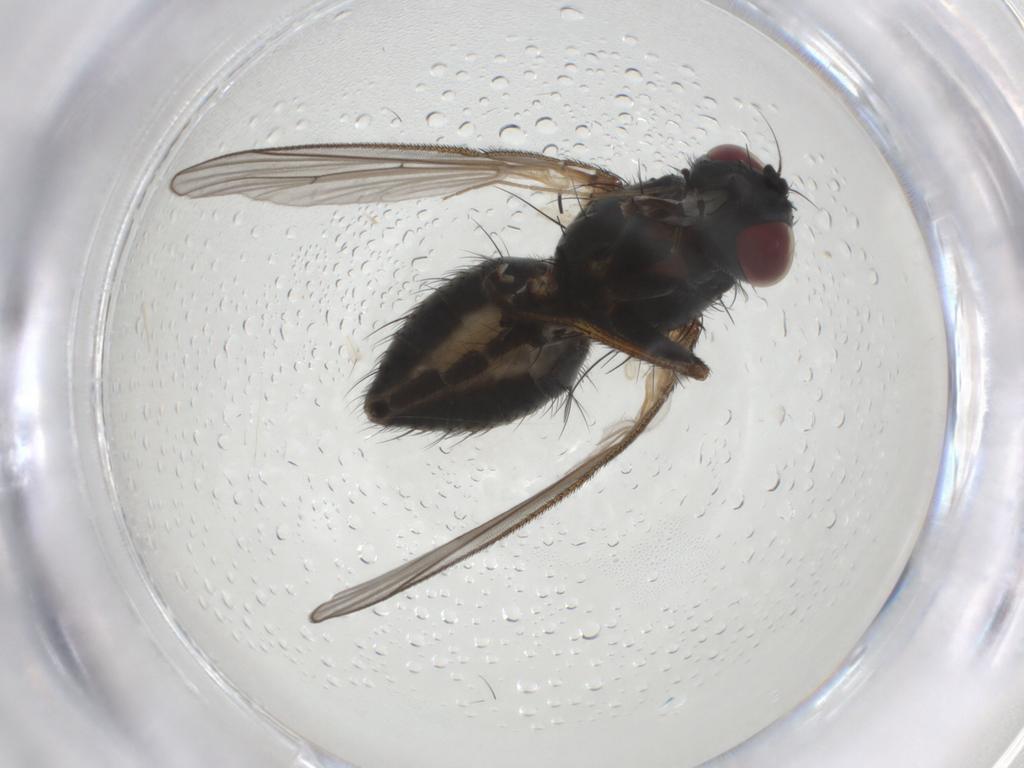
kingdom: Animalia
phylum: Arthropoda
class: Insecta
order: Diptera
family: Muscidae
